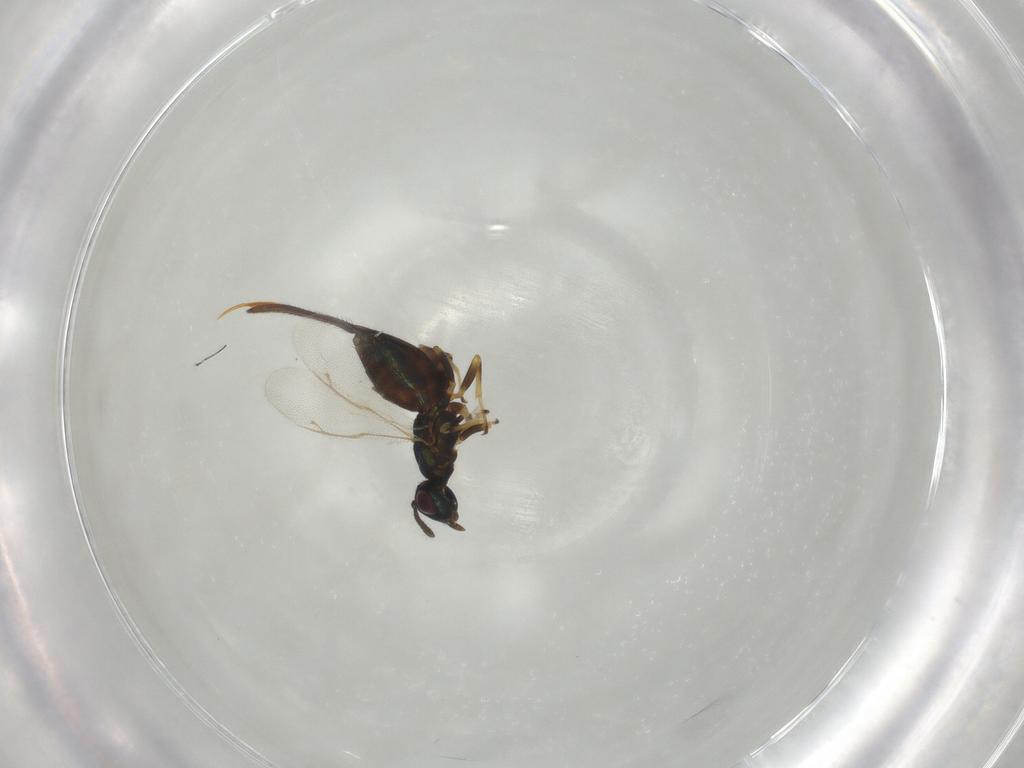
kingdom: Animalia
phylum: Arthropoda
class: Insecta
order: Hymenoptera
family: Eupelmidae
